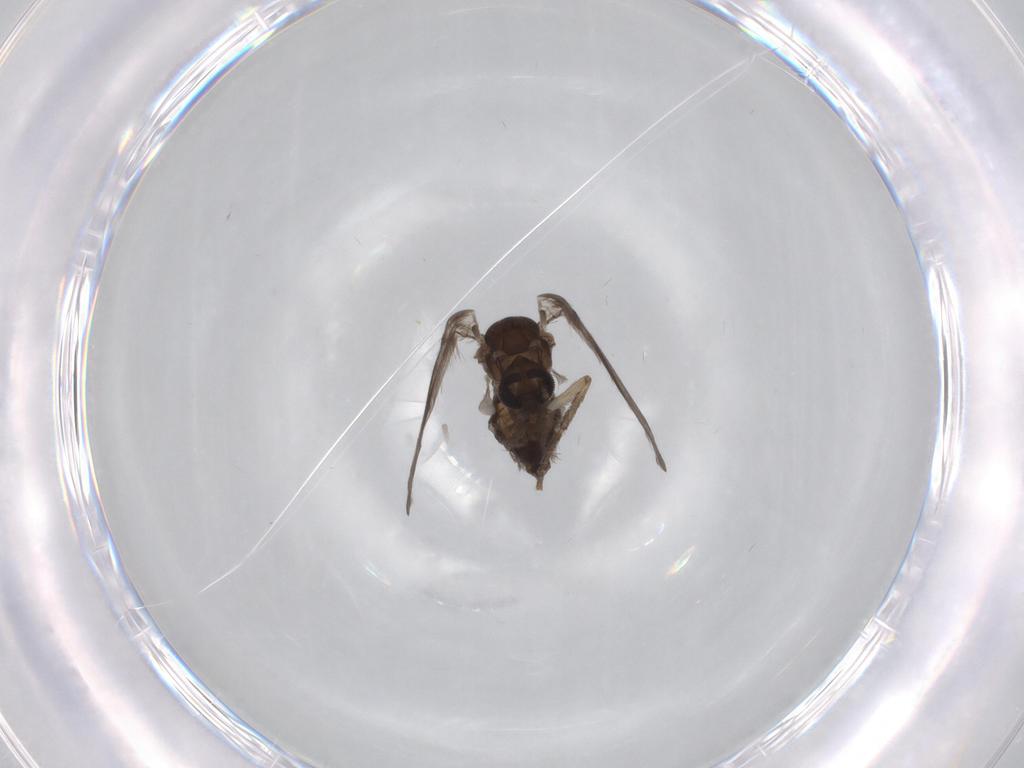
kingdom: Animalia
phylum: Arthropoda
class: Insecta
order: Diptera
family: Psychodidae
